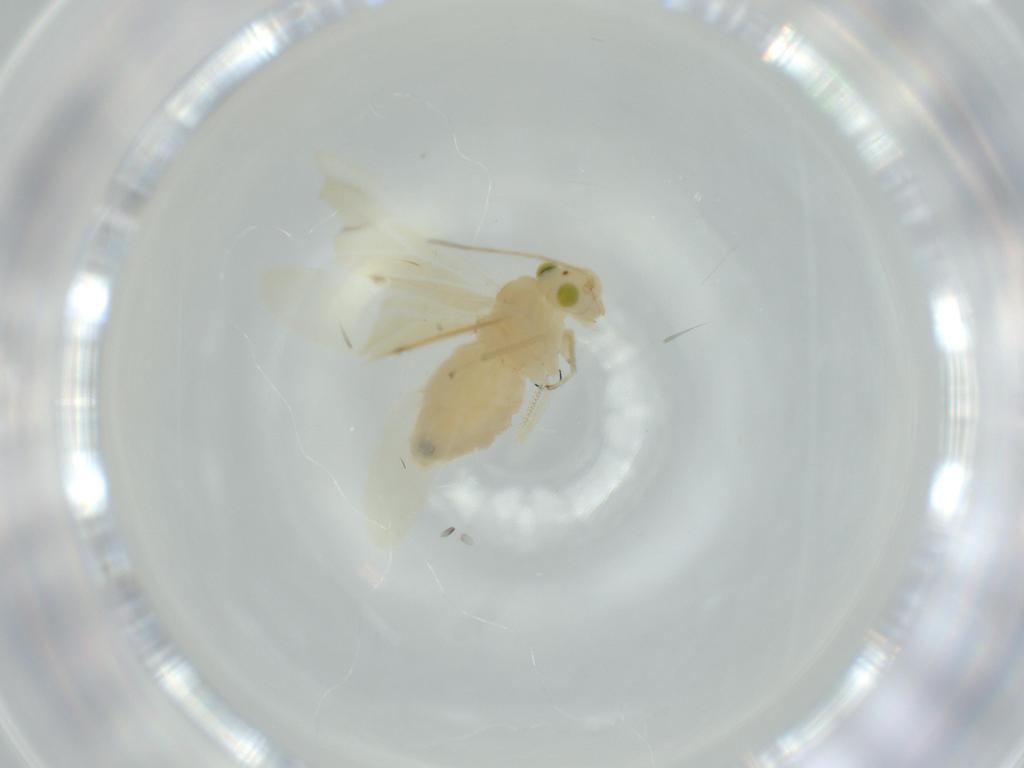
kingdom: Animalia
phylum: Arthropoda
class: Insecta
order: Psocodea
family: Caeciliusidae
